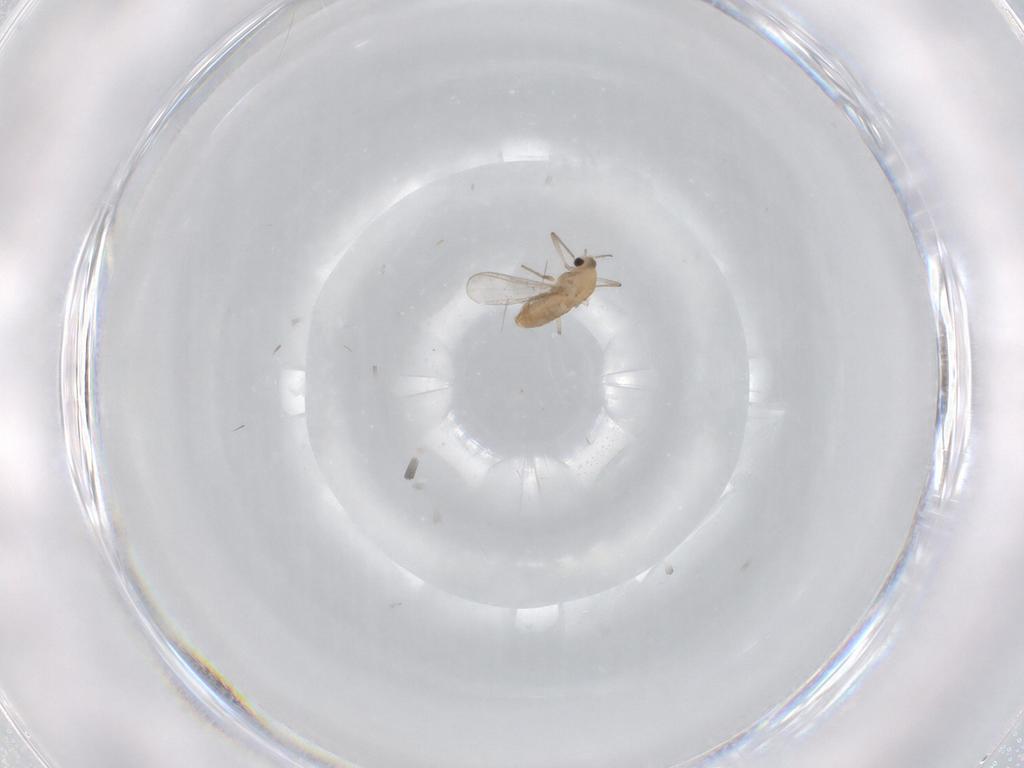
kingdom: Animalia
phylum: Arthropoda
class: Insecta
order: Diptera
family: Chironomidae
